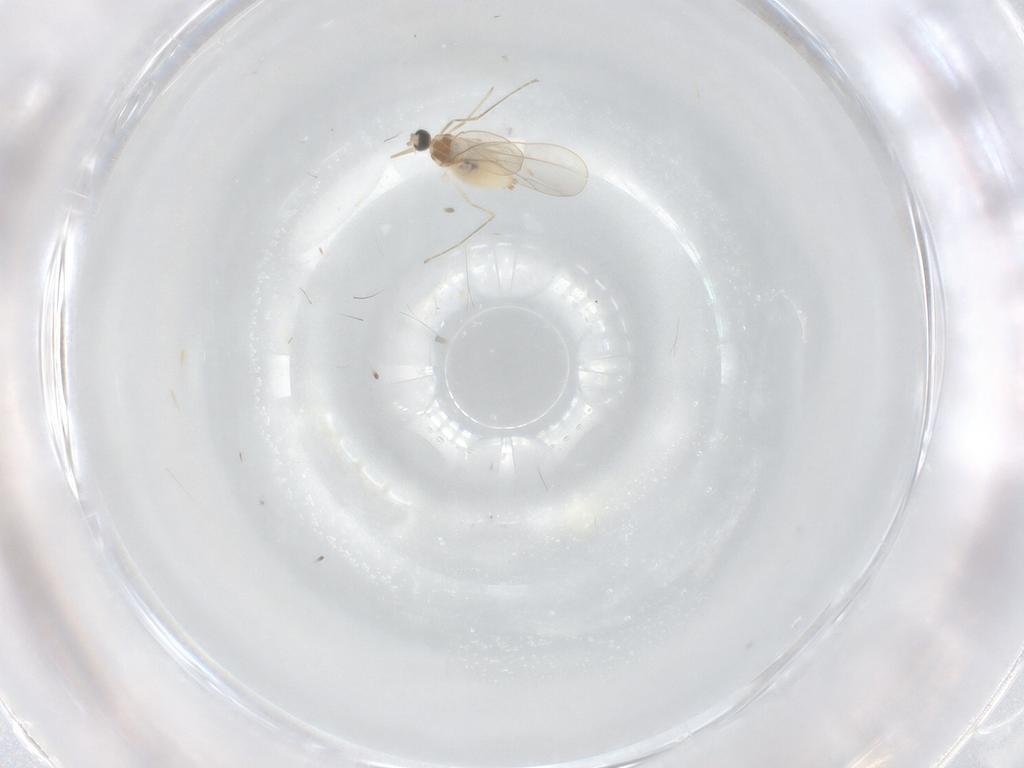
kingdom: Animalia
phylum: Arthropoda
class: Insecta
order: Diptera
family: Cecidomyiidae
